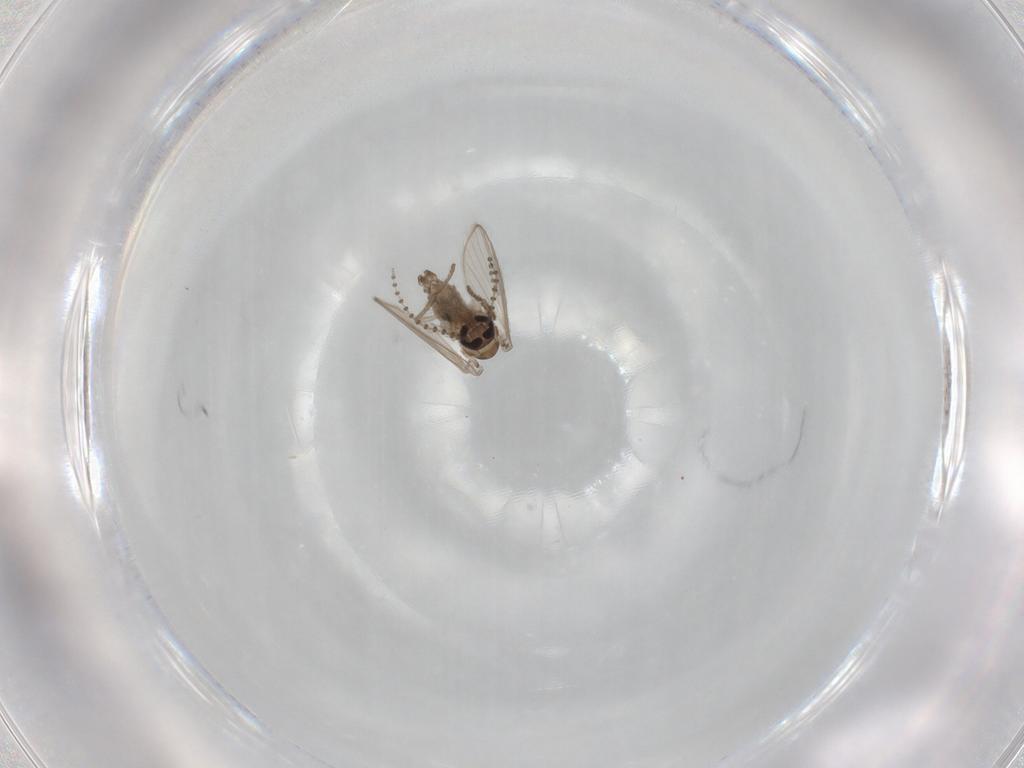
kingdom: Animalia
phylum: Arthropoda
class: Insecta
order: Diptera
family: Psychodidae
